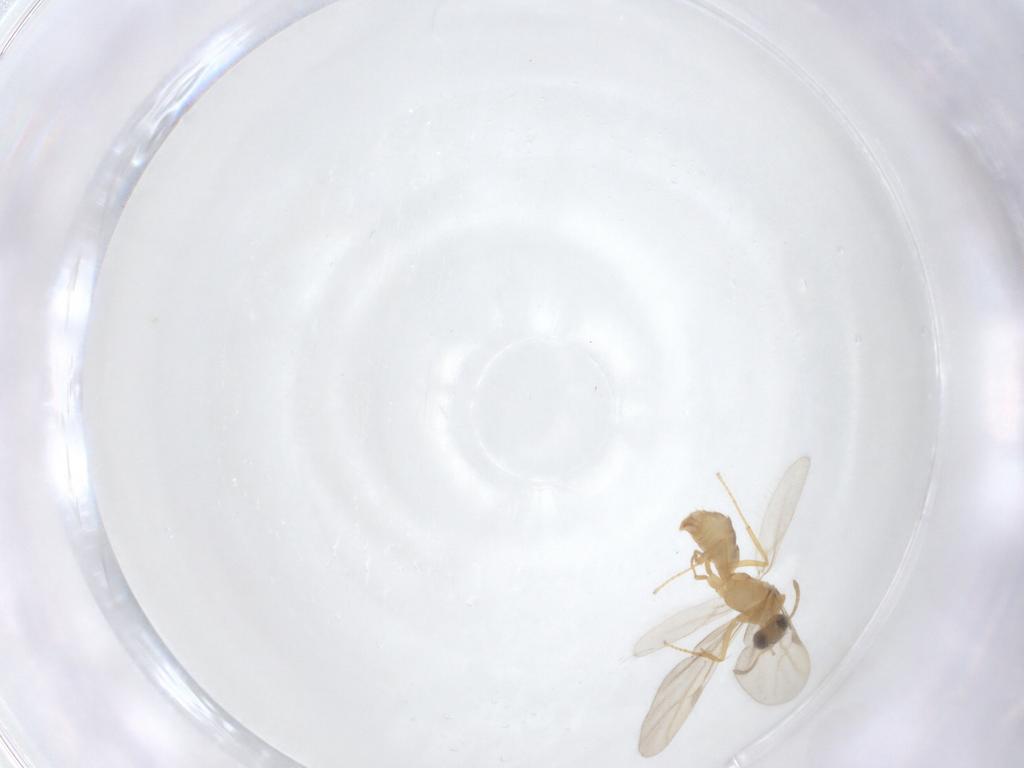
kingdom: Animalia
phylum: Arthropoda
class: Insecta
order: Hymenoptera
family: Formicidae
